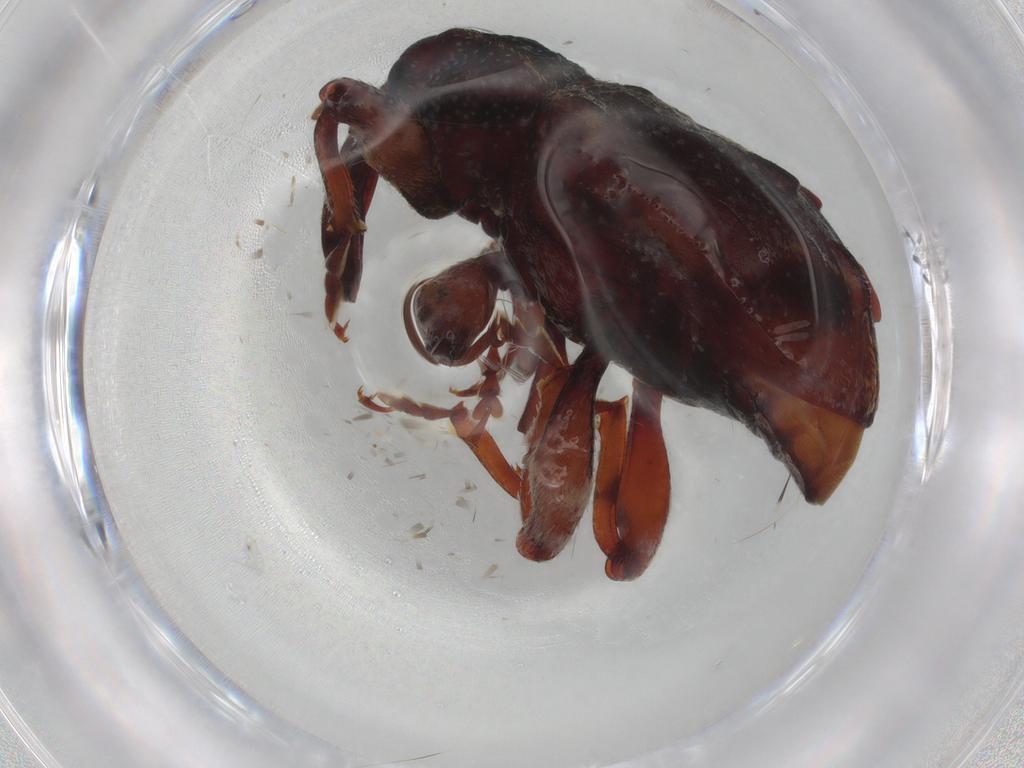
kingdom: Animalia
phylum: Arthropoda
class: Insecta
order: Coleoptera
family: Curculionidae
